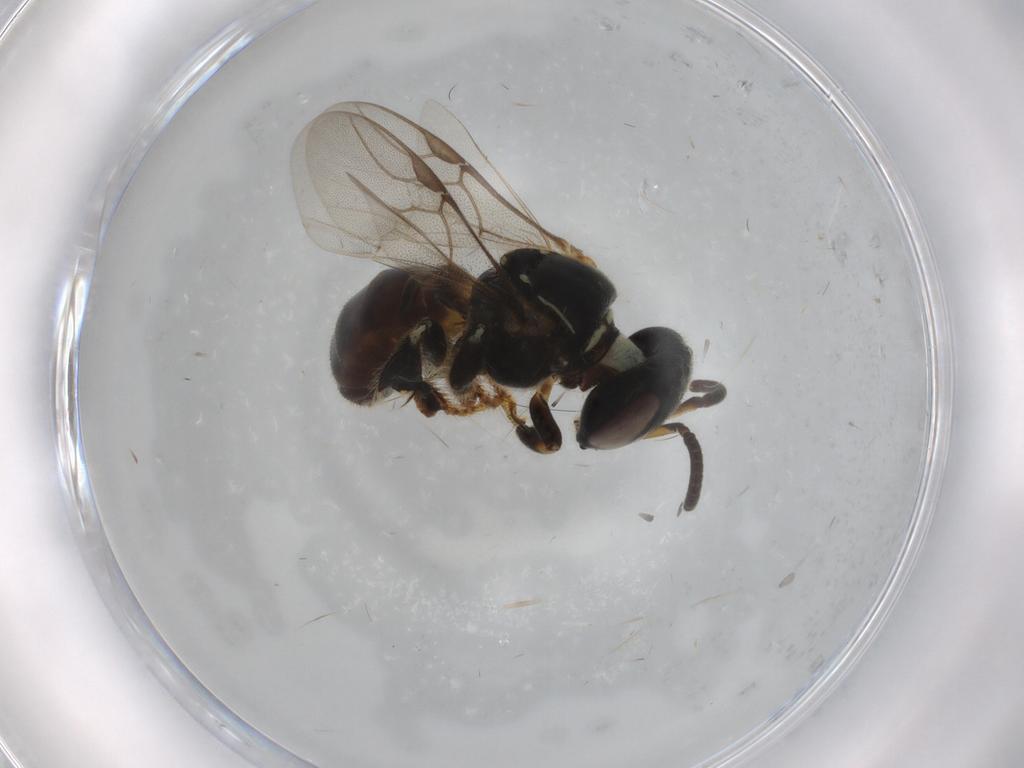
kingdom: Animalia
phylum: Arthropoda
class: Insecta
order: Hymenoptera
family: Apidae
